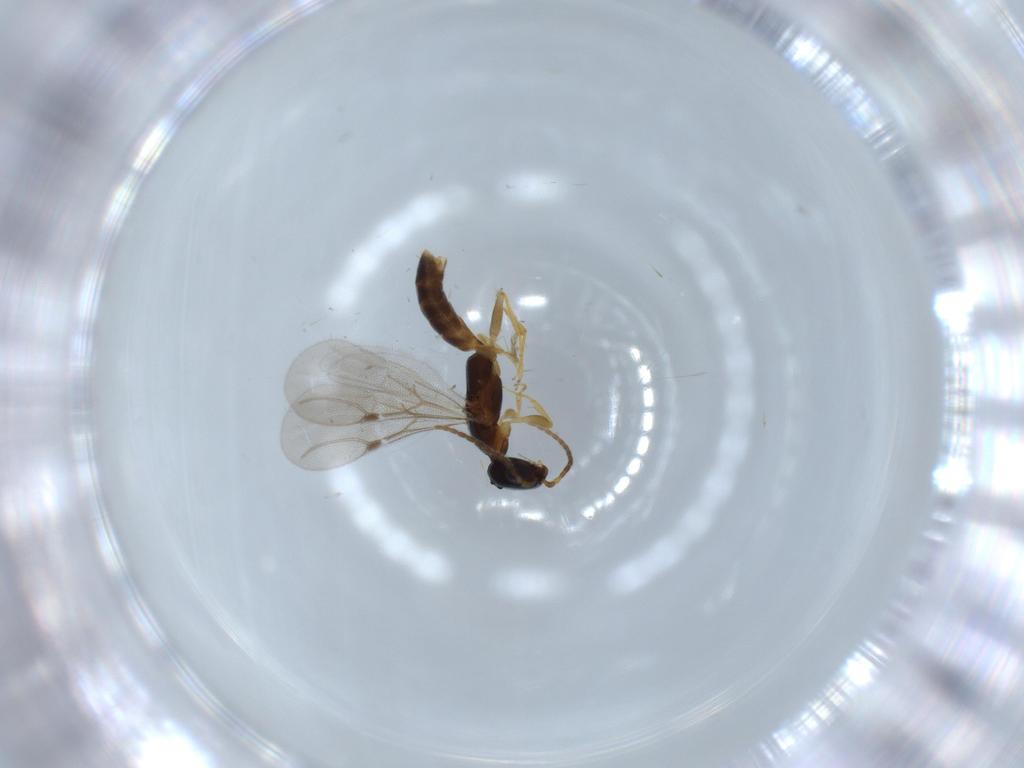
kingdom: Animalia
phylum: Arthropoda
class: Insecta
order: Hymenoptera
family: Bethylidae
